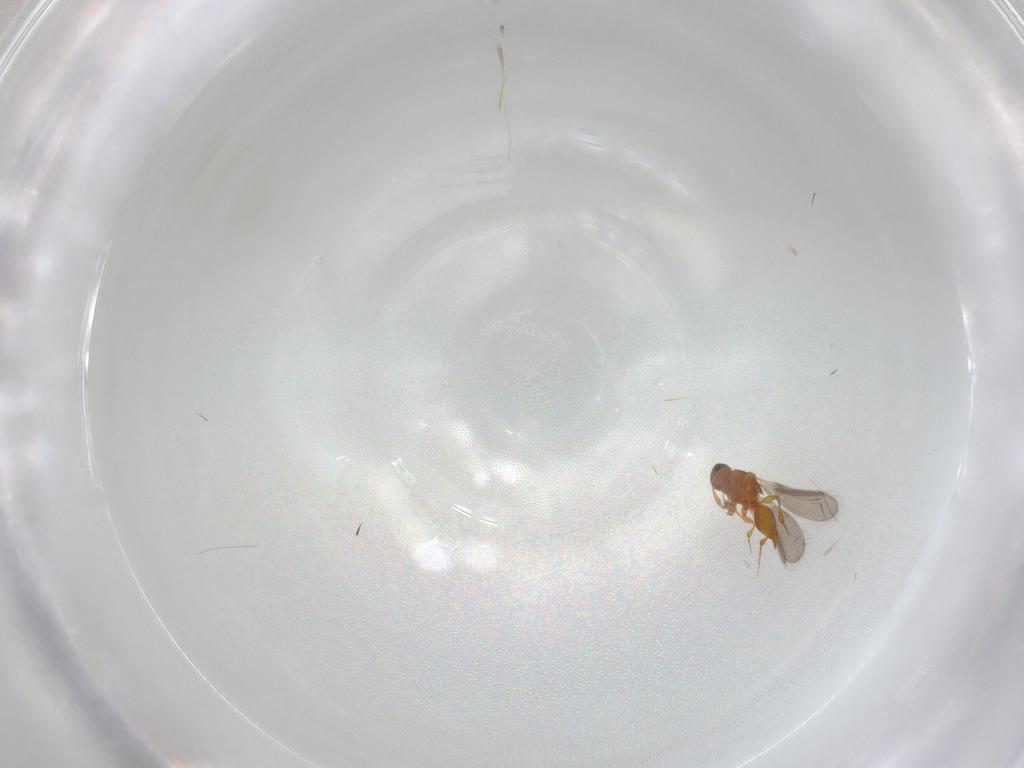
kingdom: Animalia
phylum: Arthropoda
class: Insecta
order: Hymenoptera
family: Platygastridae
